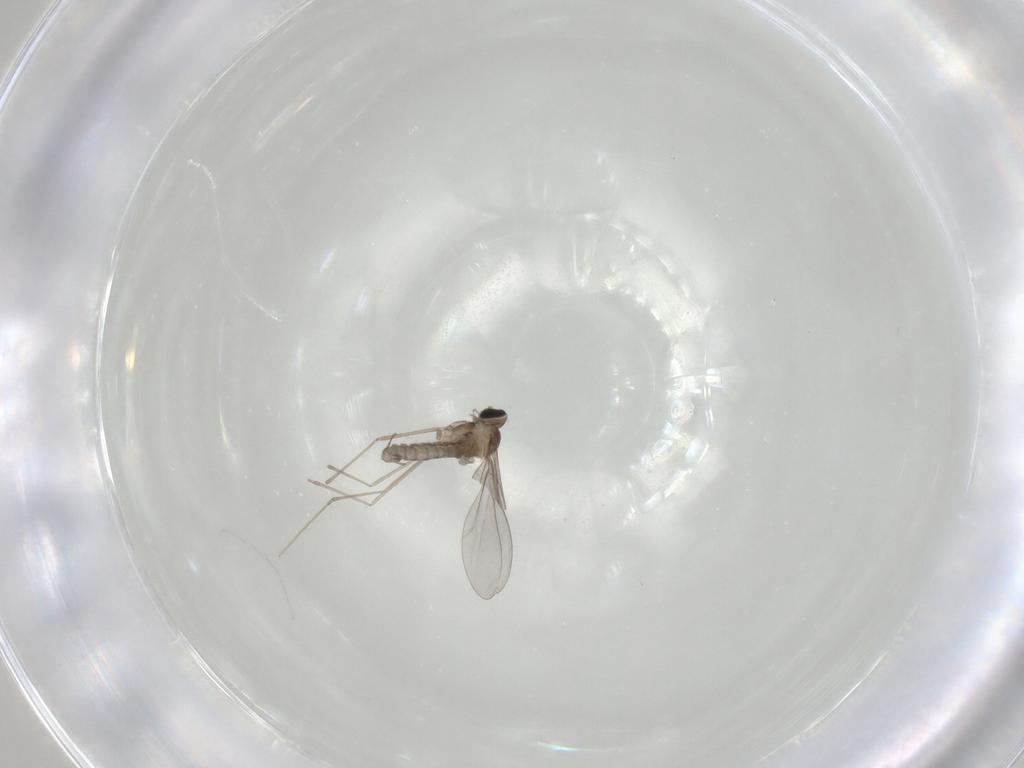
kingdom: Animalia
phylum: Arthropoda
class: Insecta
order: Diptera
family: Cecidomyiidae
